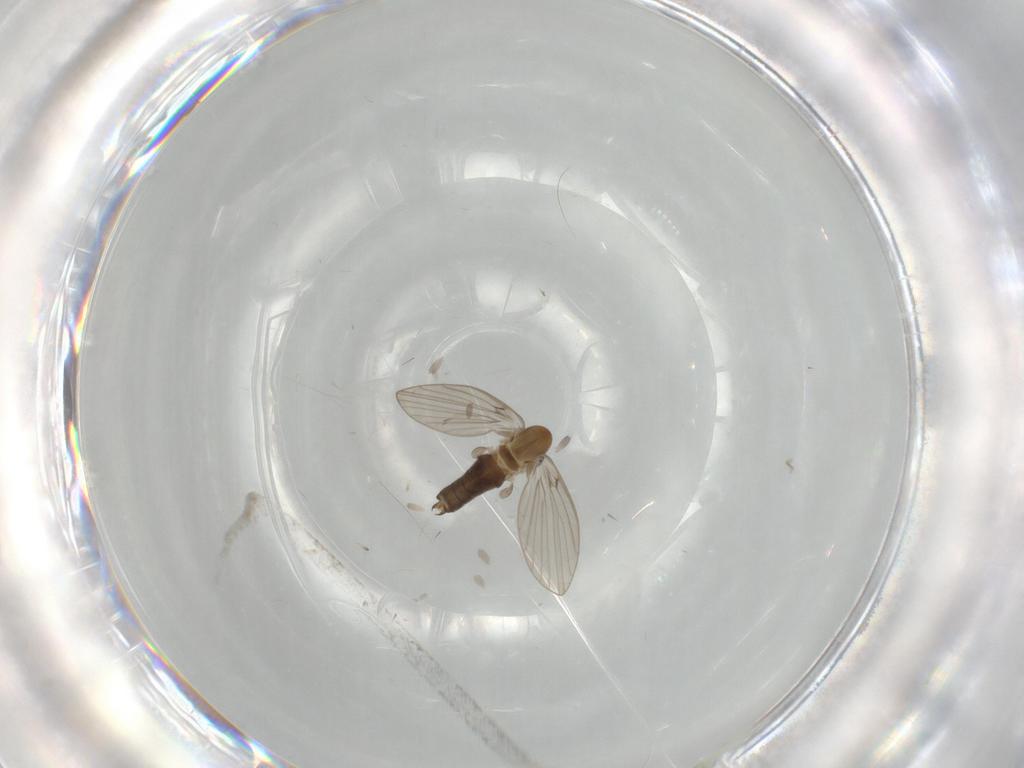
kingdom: Animalia
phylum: Arthropoda
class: Insecta
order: Diptera
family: Psychodidae
